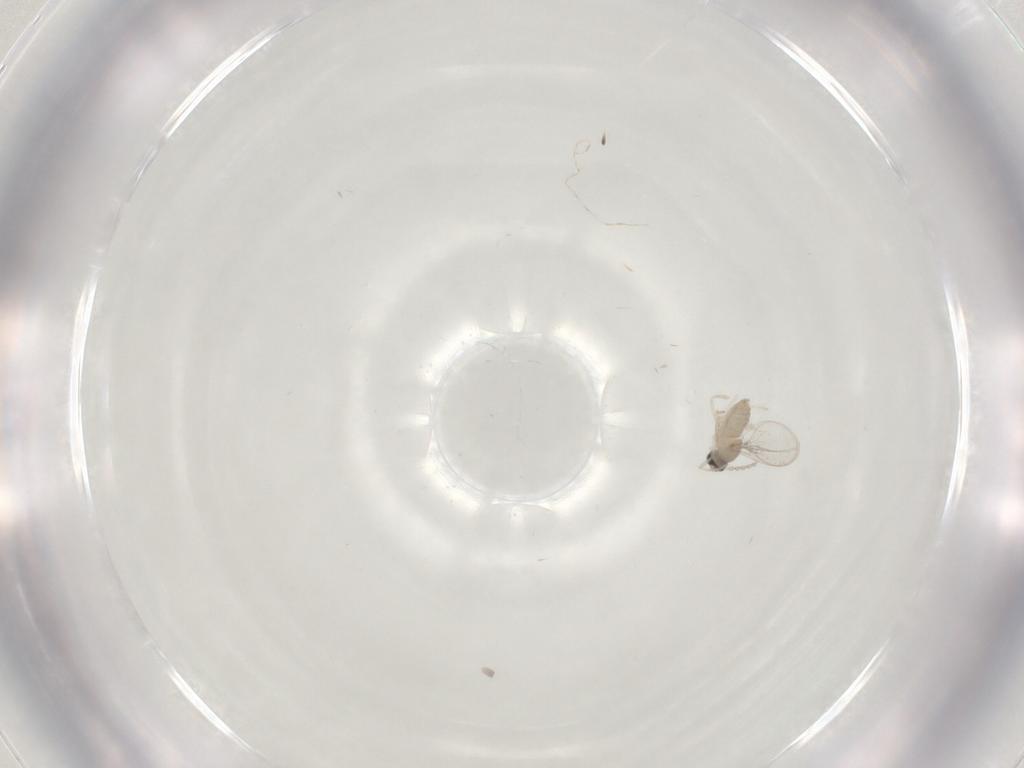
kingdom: Animalia
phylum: Arthropoda
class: Insecta
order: Diptera
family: Cecidomyiidae
